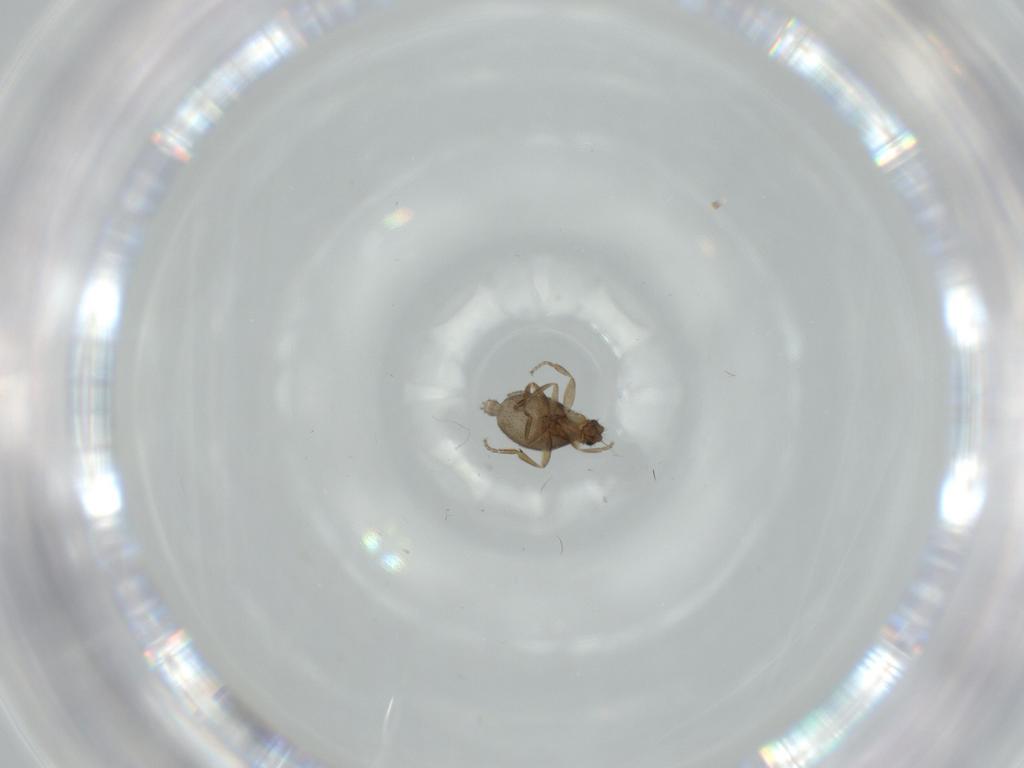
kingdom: Animalia
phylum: Arthropoda
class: Insecta
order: Diptera
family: Phoridae
